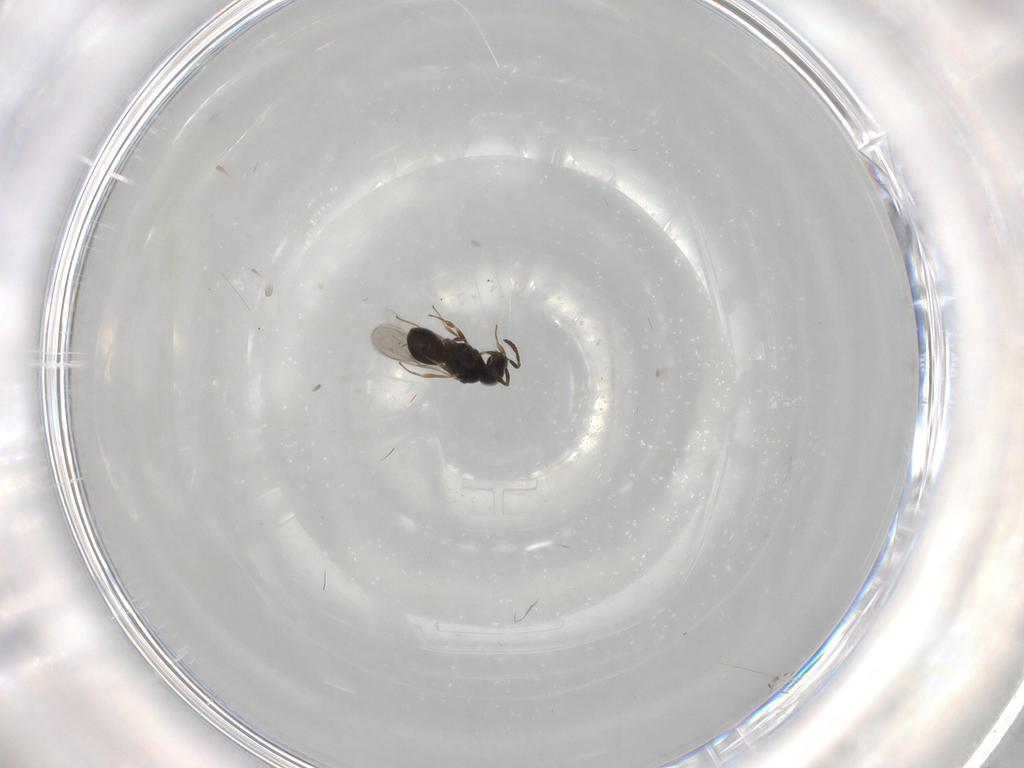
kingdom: Animalia
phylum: Arthropoda
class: Insecta
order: Hymenoptera
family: Scelionidae
